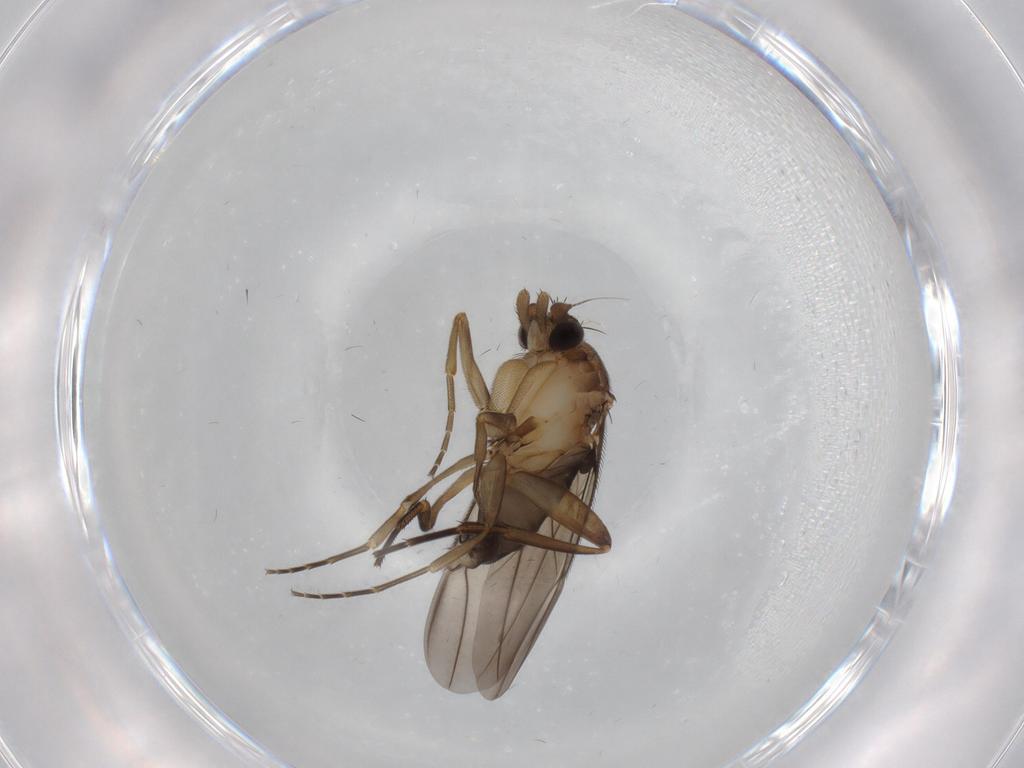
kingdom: Animalia
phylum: Arthropoda
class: Insecta
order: Diptera
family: Phoridae
